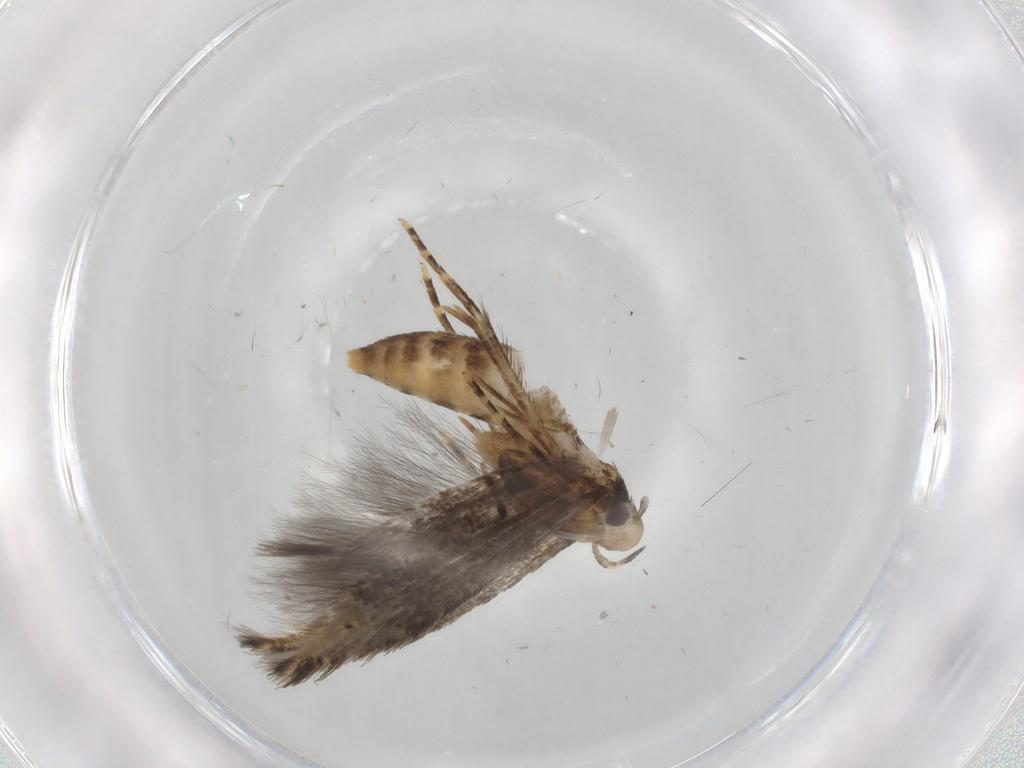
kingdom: Animalia
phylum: Arthropoda
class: Insecta
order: Lepidoptera
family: Cosmopterigidae
